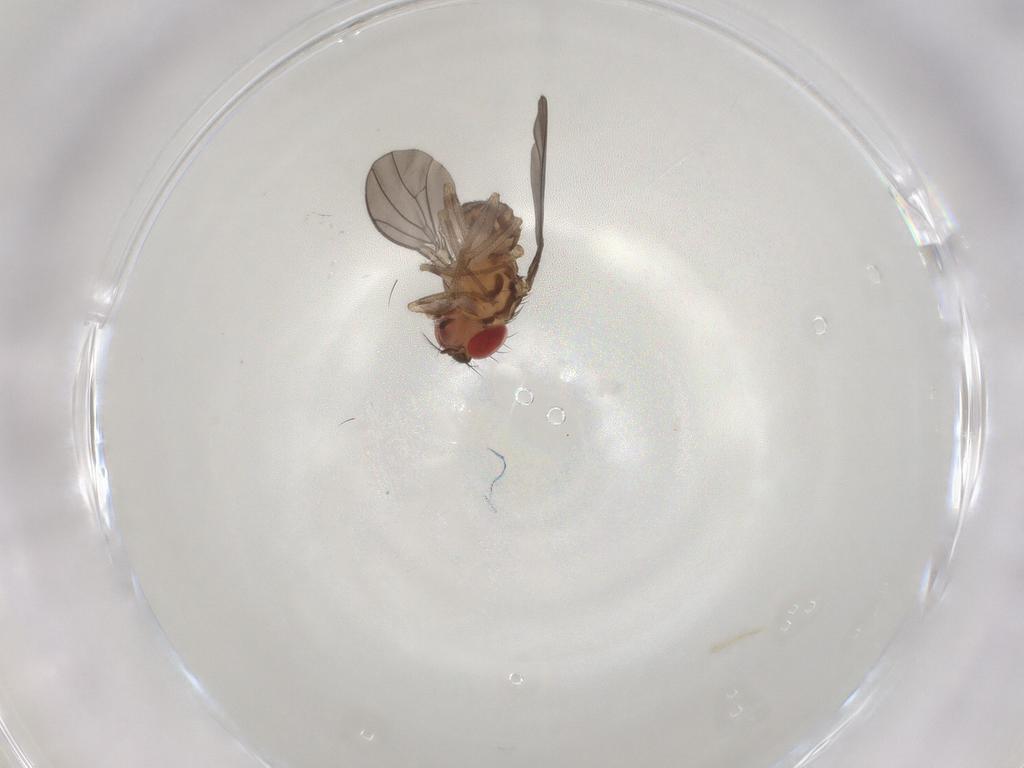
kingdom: Animalia
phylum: Arthropoda
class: Insecta
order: Diptera
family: Drosophilidae
